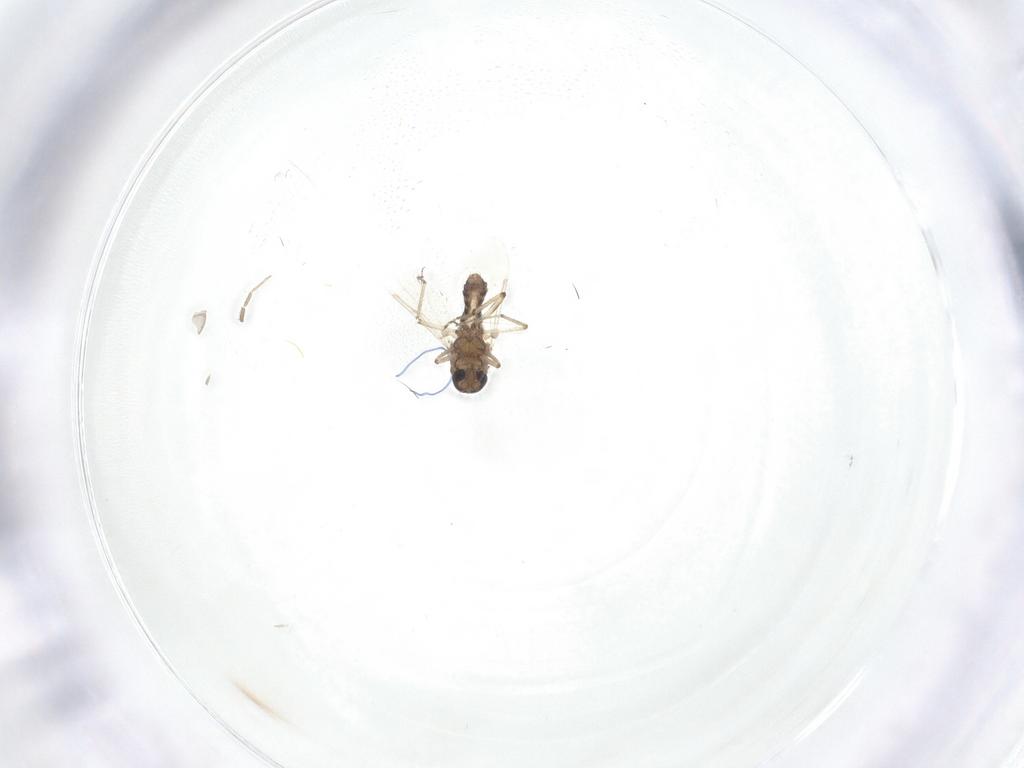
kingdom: Animalia
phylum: Arthropoda
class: Insecta
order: Diptera
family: Ceratopogonidae
